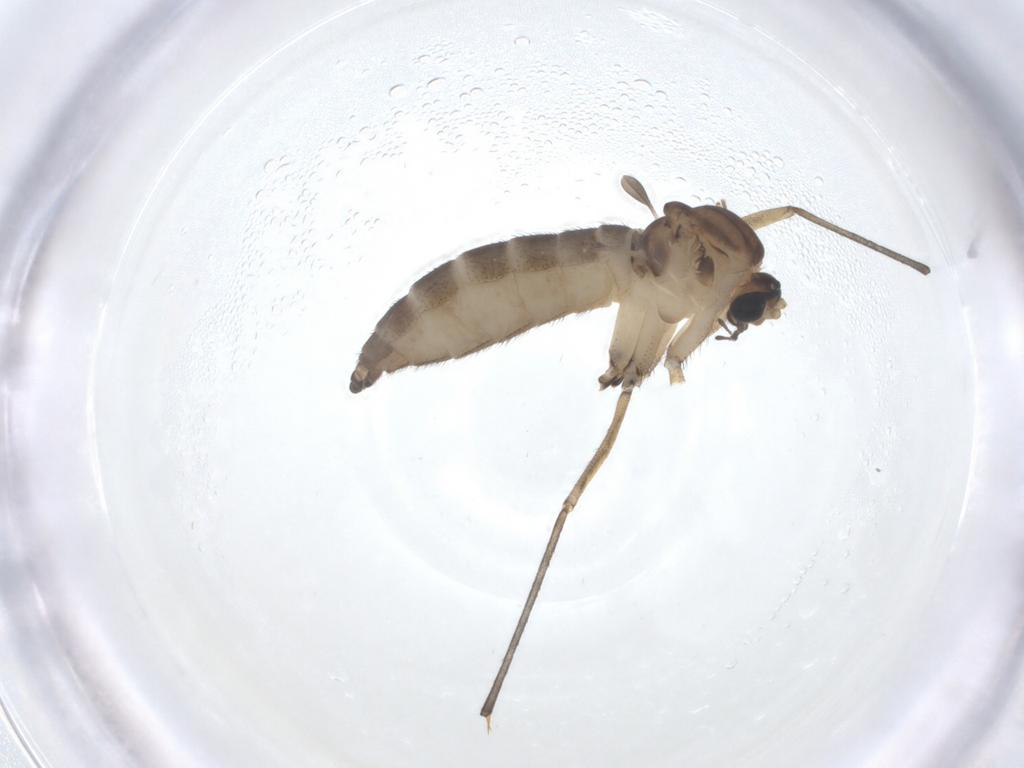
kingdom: Animalia
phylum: Arthropoda
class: Insecta
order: Diptera
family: Sciaridae
